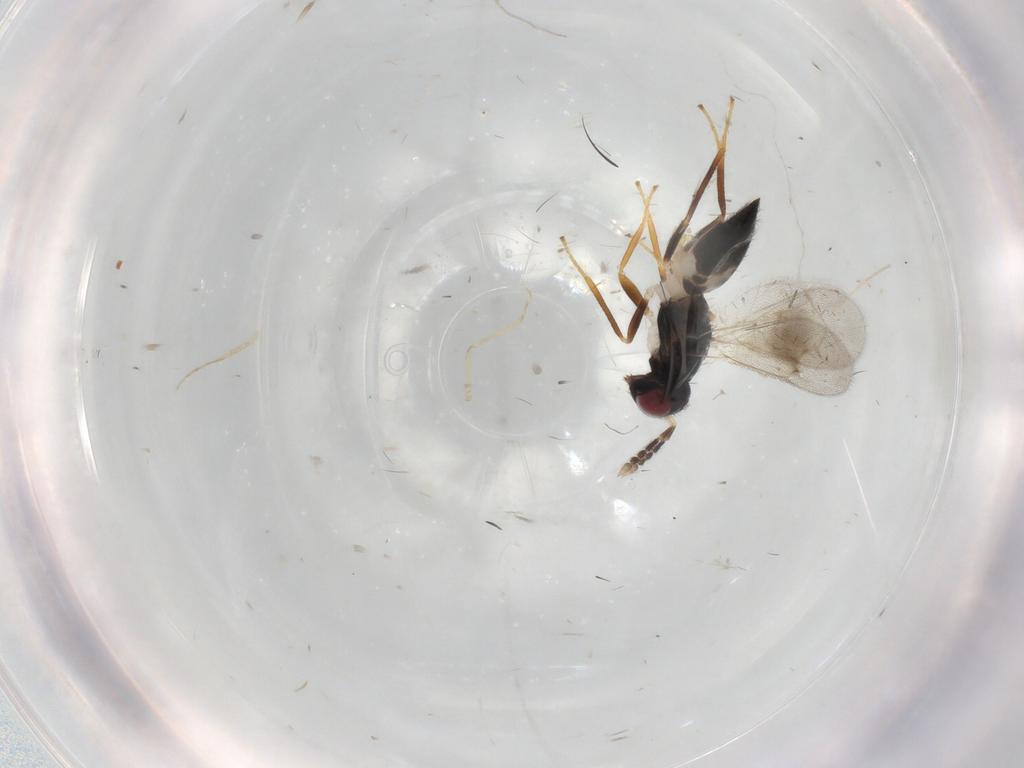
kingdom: Animalia
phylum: Arthropoda
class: Insecta
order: Hymenoptera
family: Eulophidae
